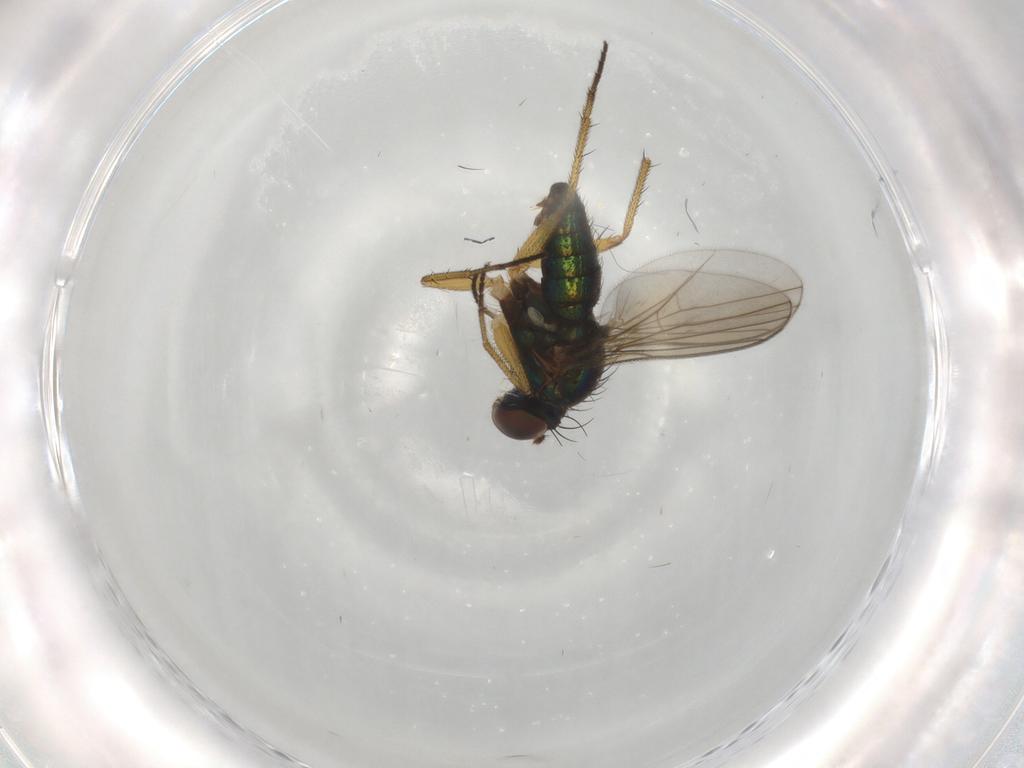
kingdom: Animalia
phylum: Arthropoda
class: Insecta
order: Diptera
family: Dolichopodidae
